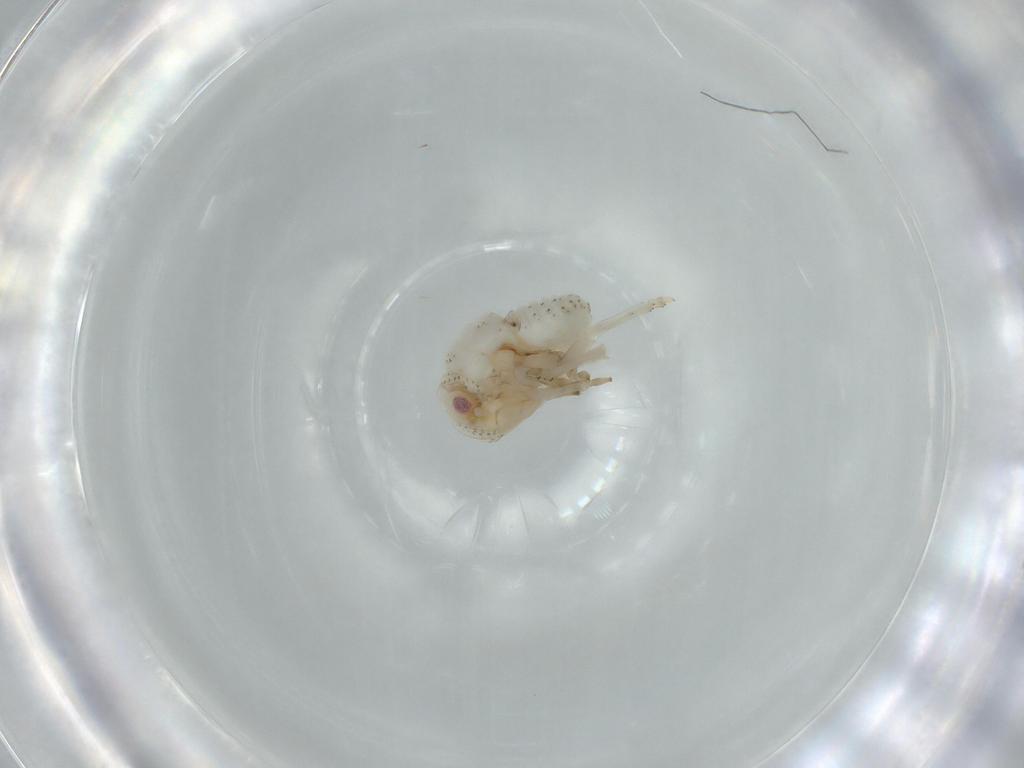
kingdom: Animalia
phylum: Arthropoda
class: Insecta
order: Hemiptera
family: Acanaloniidae
